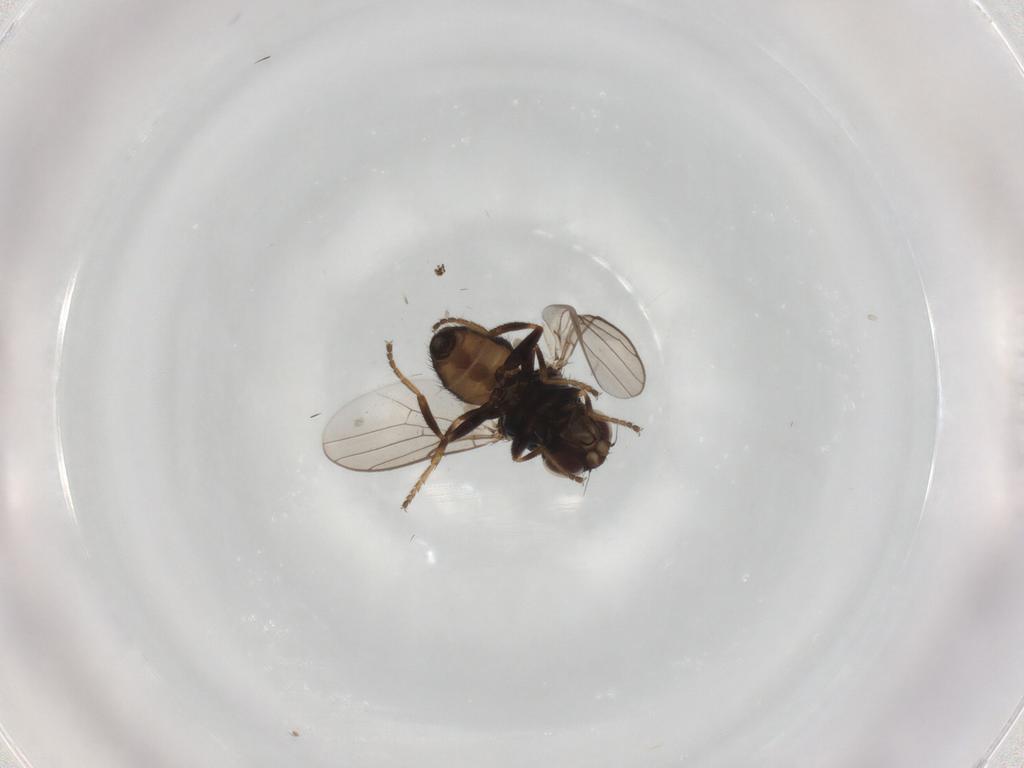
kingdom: Animalia
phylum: Arthropoda
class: Insecta
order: Diptera
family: Chloropidae
